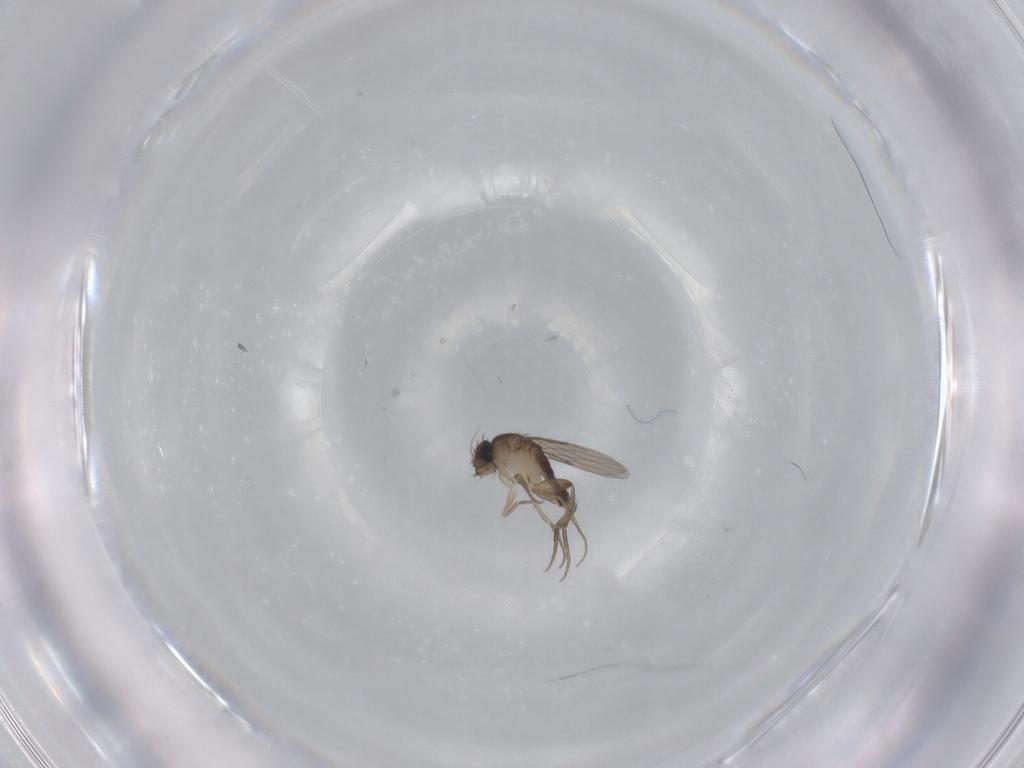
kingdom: Animalia
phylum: Arthropoda
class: Insecta
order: Diptera
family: Phoridae
